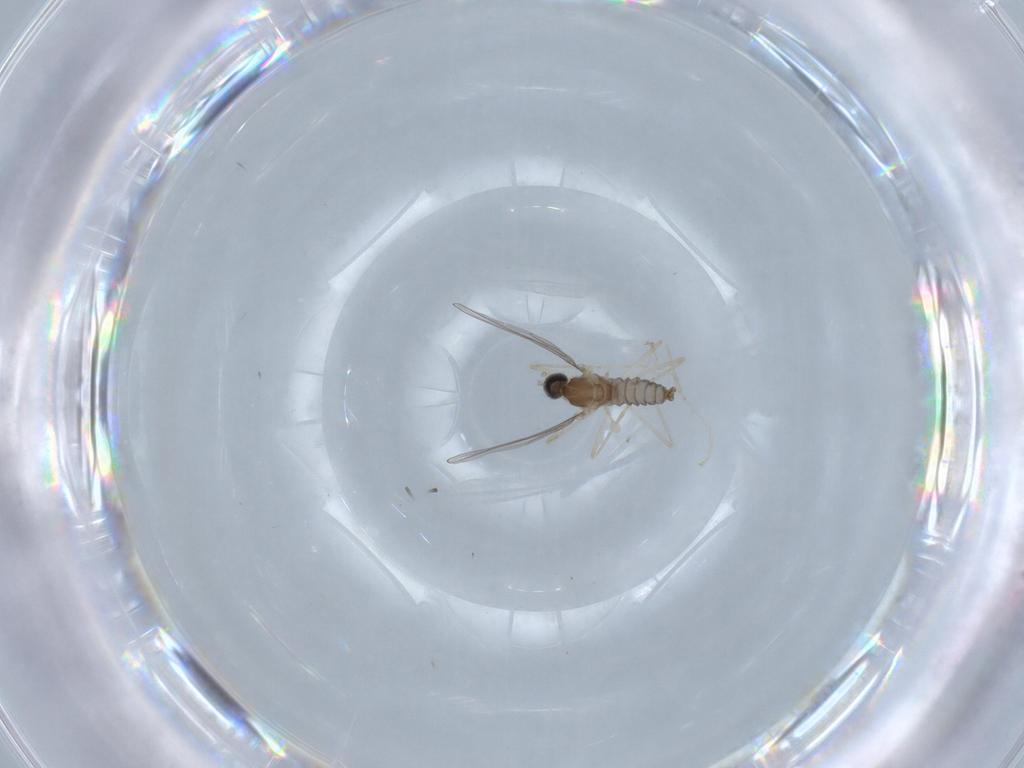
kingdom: Animalia
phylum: Arthropoda
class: Insecta
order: Diptera
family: Cecidomyiidae
